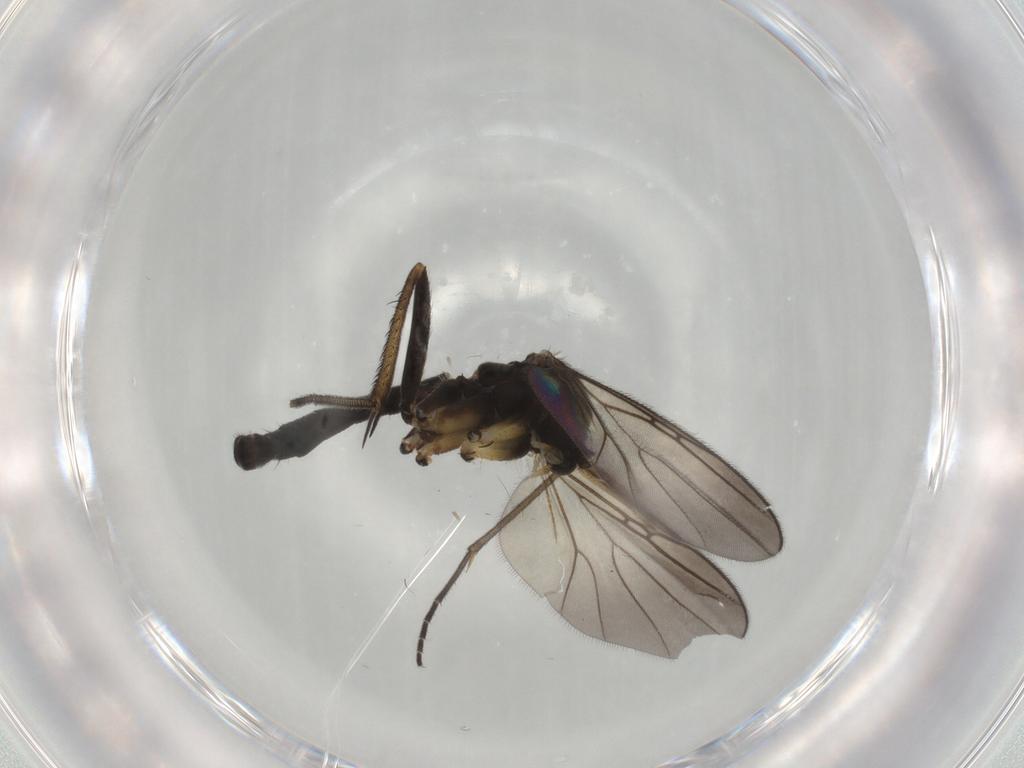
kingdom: Animalia
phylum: Arthropoda
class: Insecta
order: Diptera
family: Mycetophilidae
